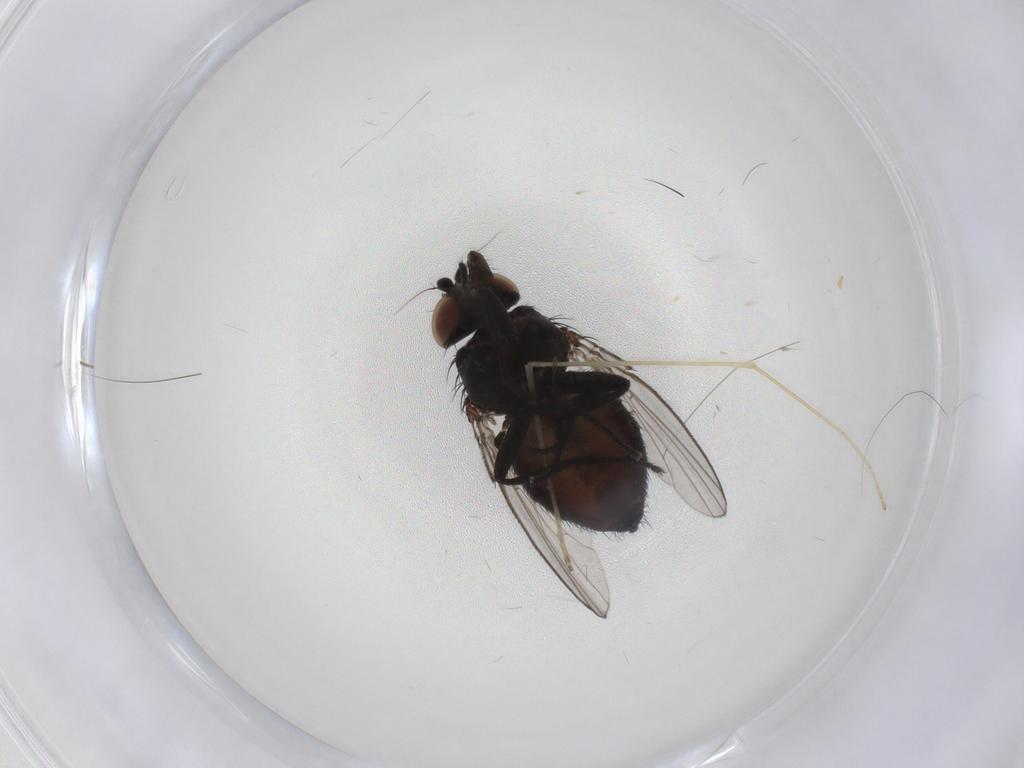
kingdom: Animalia
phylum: Arthropoda
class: Insecta
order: Diptera
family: Milichiidae
